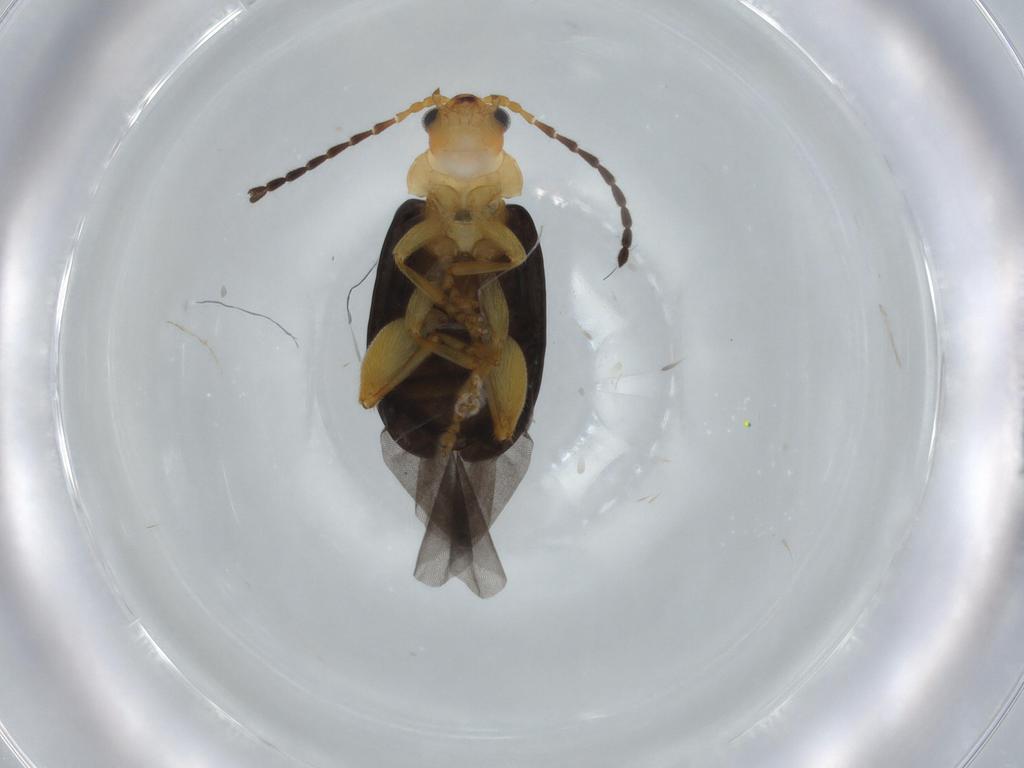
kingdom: Animalia
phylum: Arthropoda
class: Insecta
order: Coleoptera
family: Chrysomelidae
